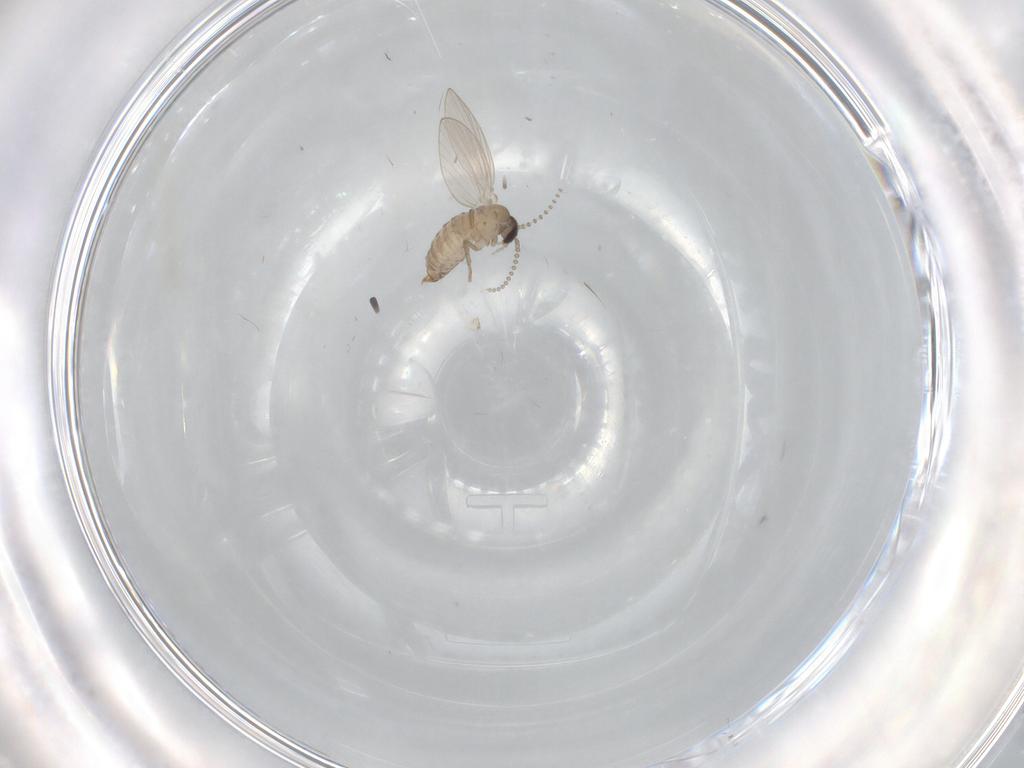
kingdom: Animalia
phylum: Arthropoda
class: Insecta
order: Diptera
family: Psychodidae
